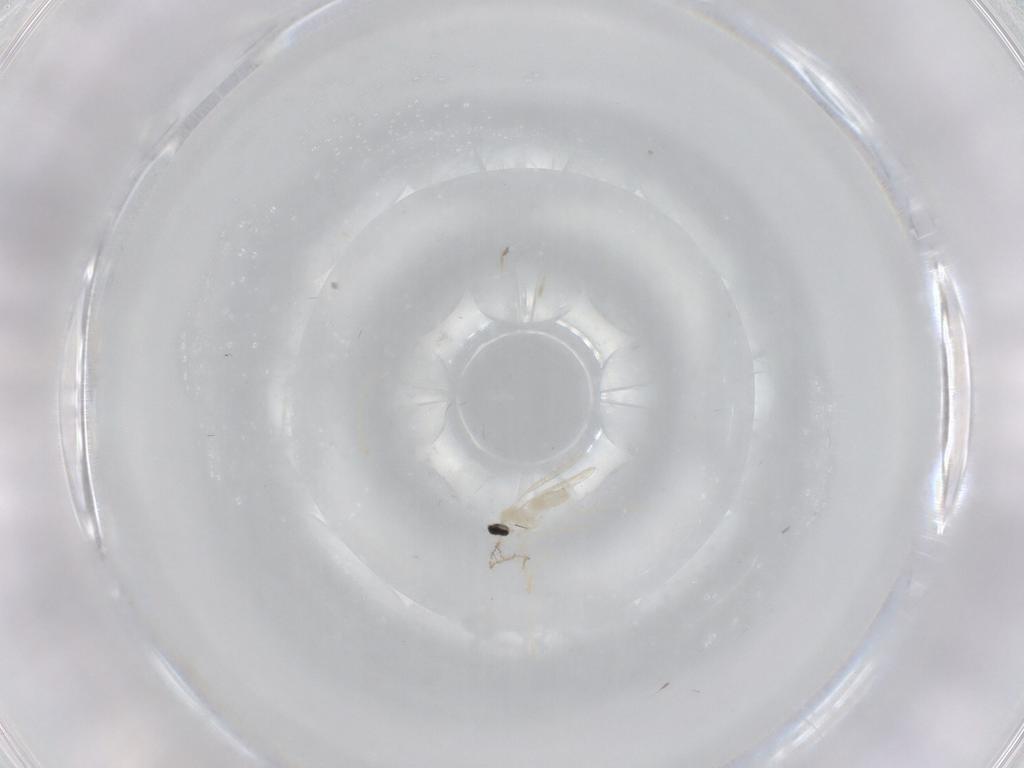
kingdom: Animalia
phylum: Arthropoda
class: Insecta
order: Diptera
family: Cecidomyiidae
